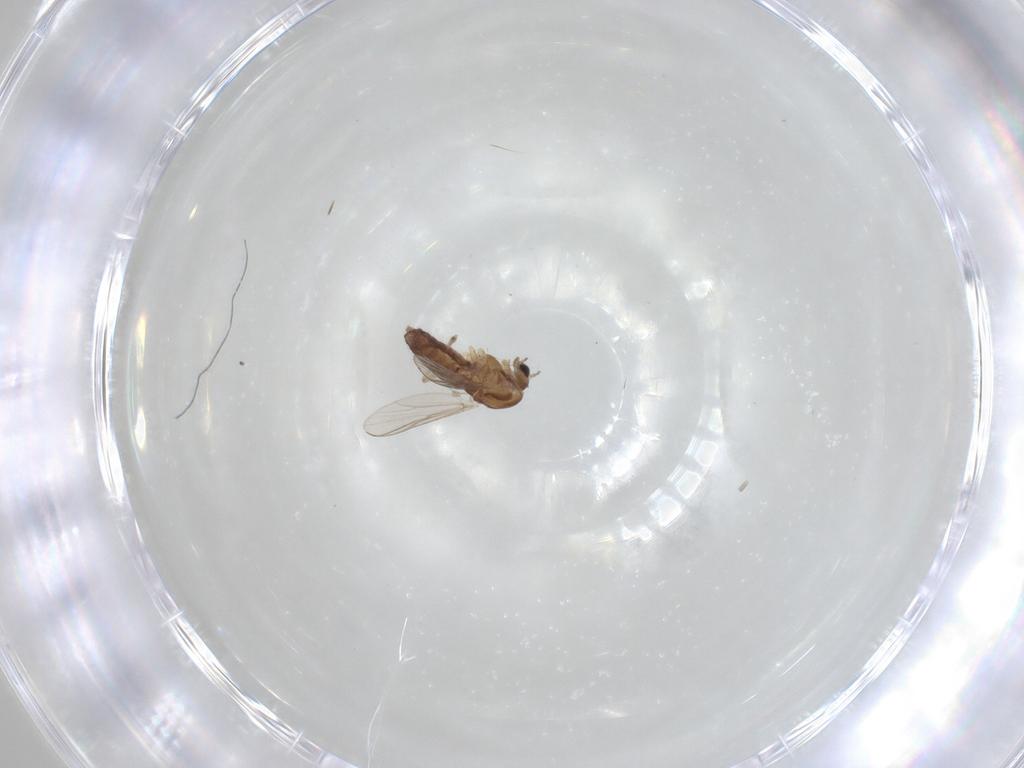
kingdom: Animalia
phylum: Arthropoda
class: Insecta
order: Diptera
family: Chironomidae
